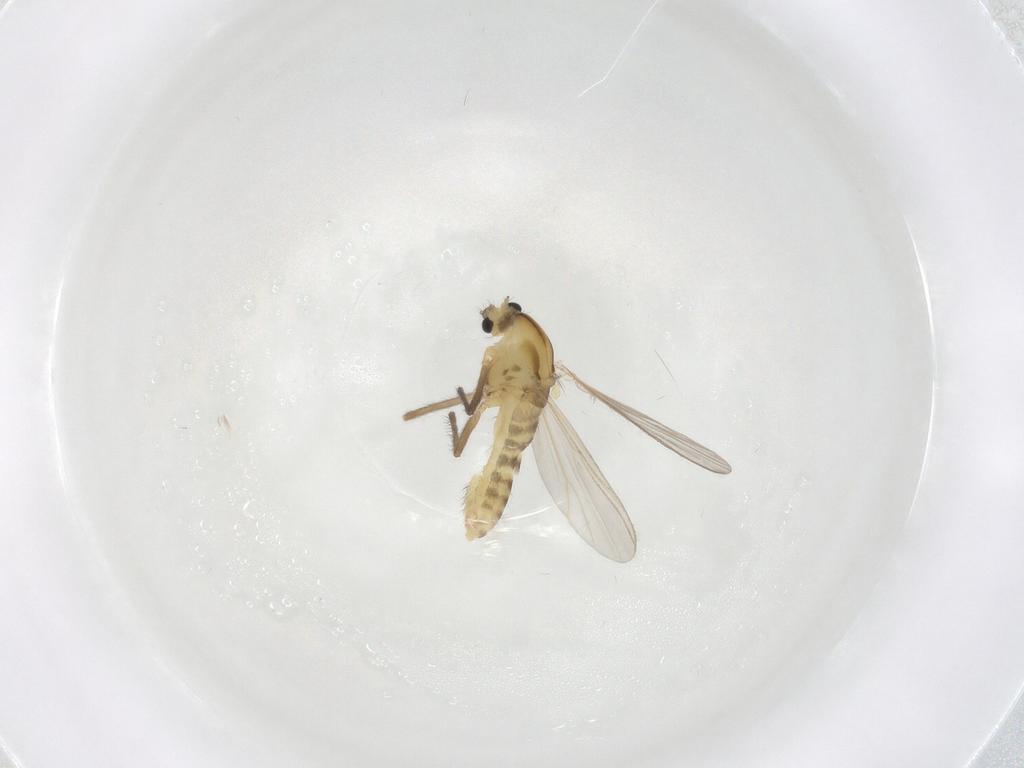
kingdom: Animalia
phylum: Arthropoda
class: Insecta
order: Diptera
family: Chironomidae
